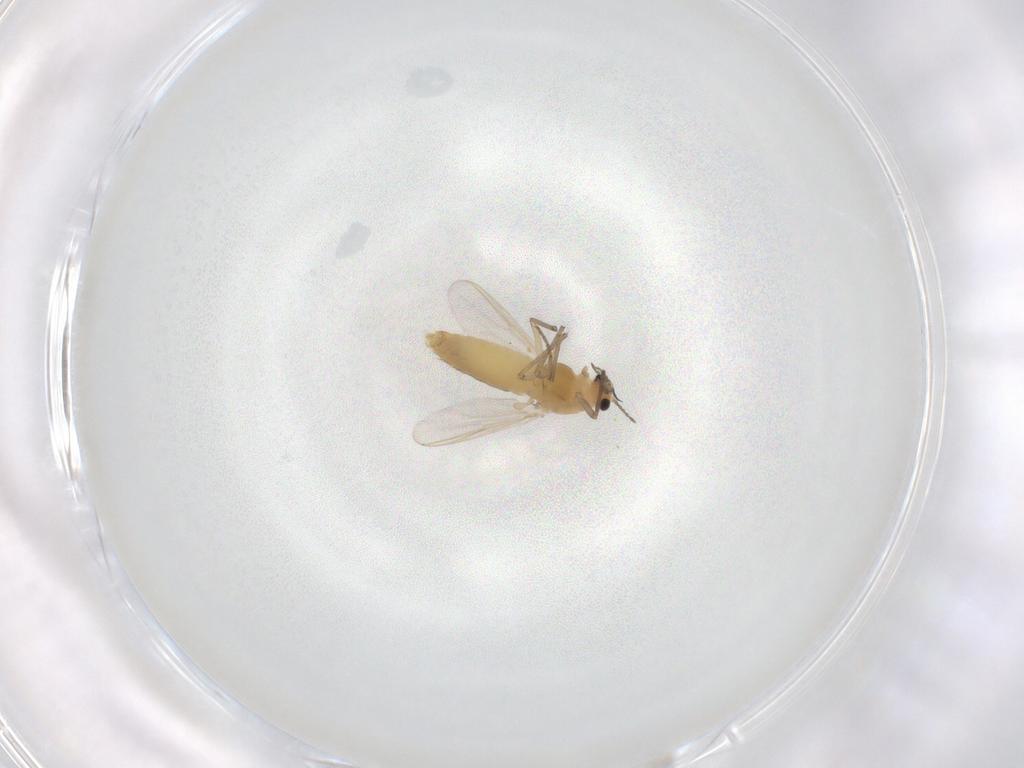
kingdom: Animalia
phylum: Arthropoda
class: Insecta
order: Diptera
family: Chironomidae
